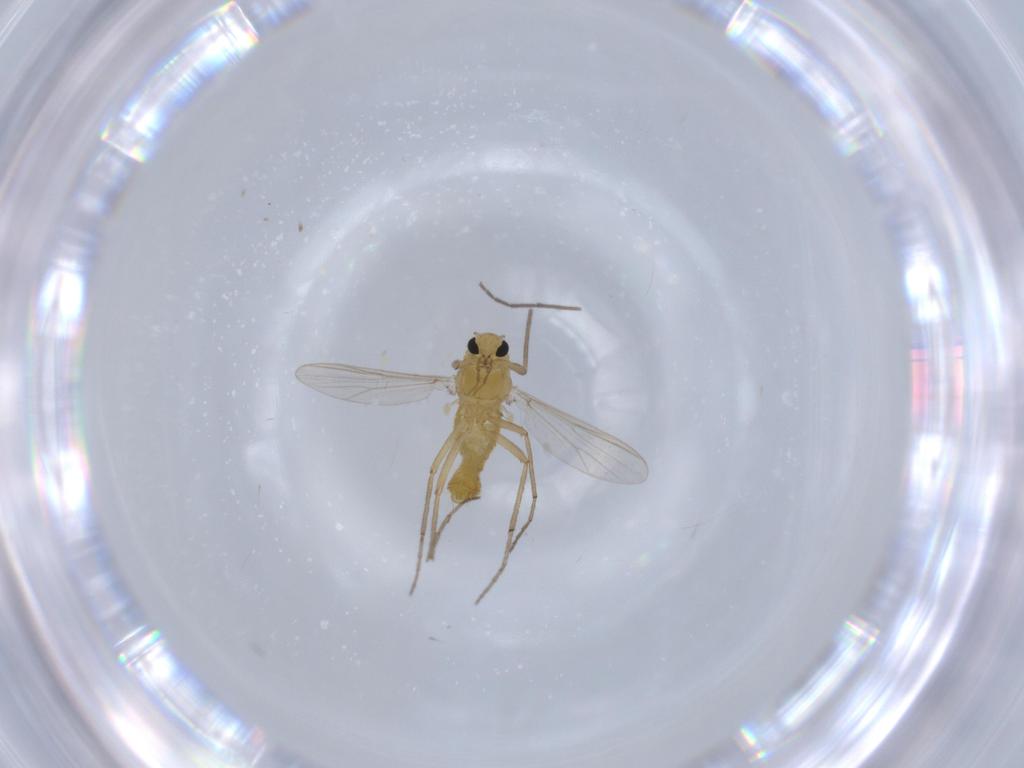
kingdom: Animalia
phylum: Arthropoda
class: Insecta
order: Diptera
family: Chironomidae
